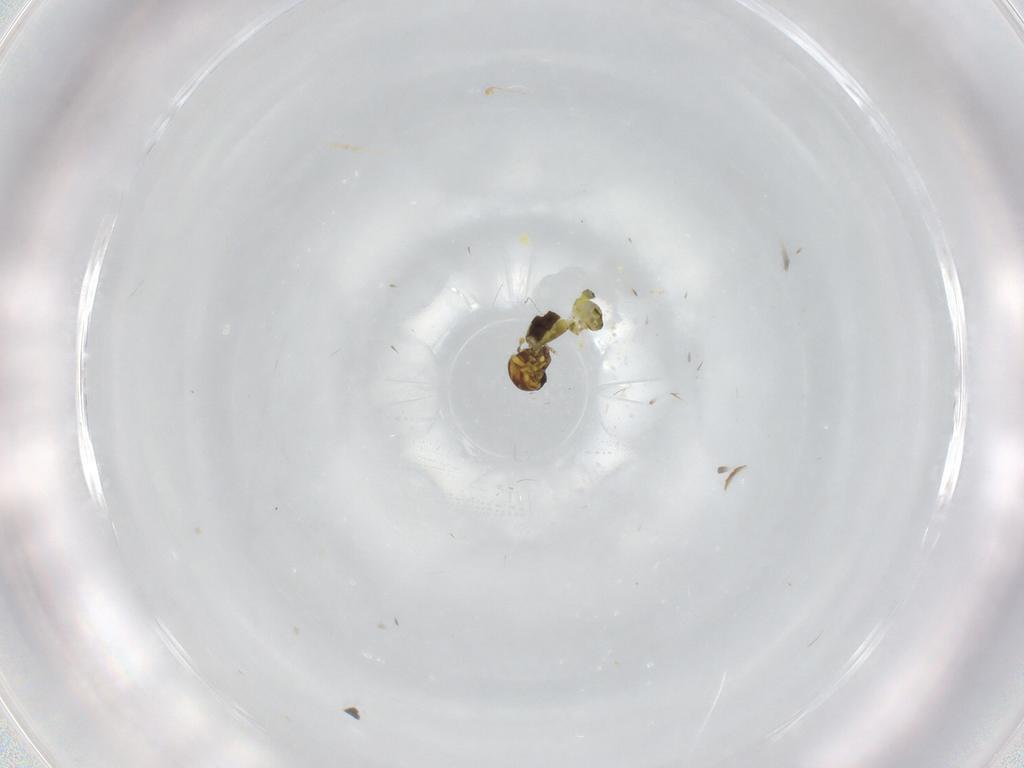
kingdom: Animalia
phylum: Arthropoda
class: Insecta
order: Diptera
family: Ceratopogonidae
